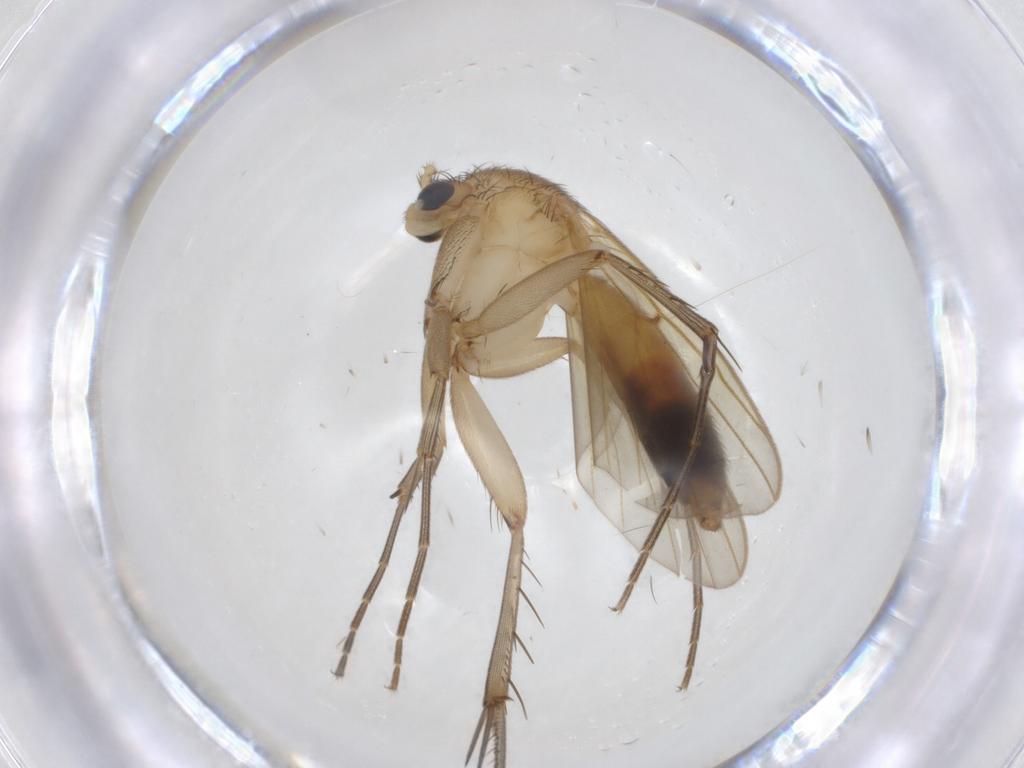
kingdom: Animalia
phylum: Arthropoda
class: Insecta
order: Diptera
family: Mycetophilidae
